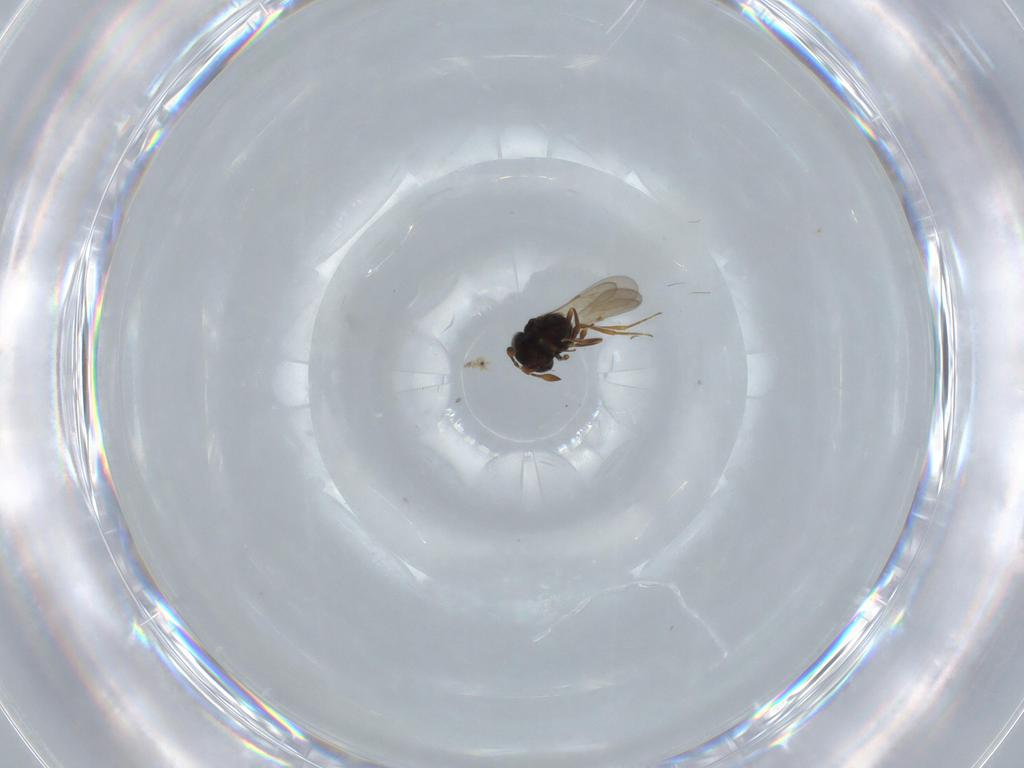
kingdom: Animalia
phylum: Arthropoda
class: Insecta
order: Hymenoptera
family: Scelionidae
